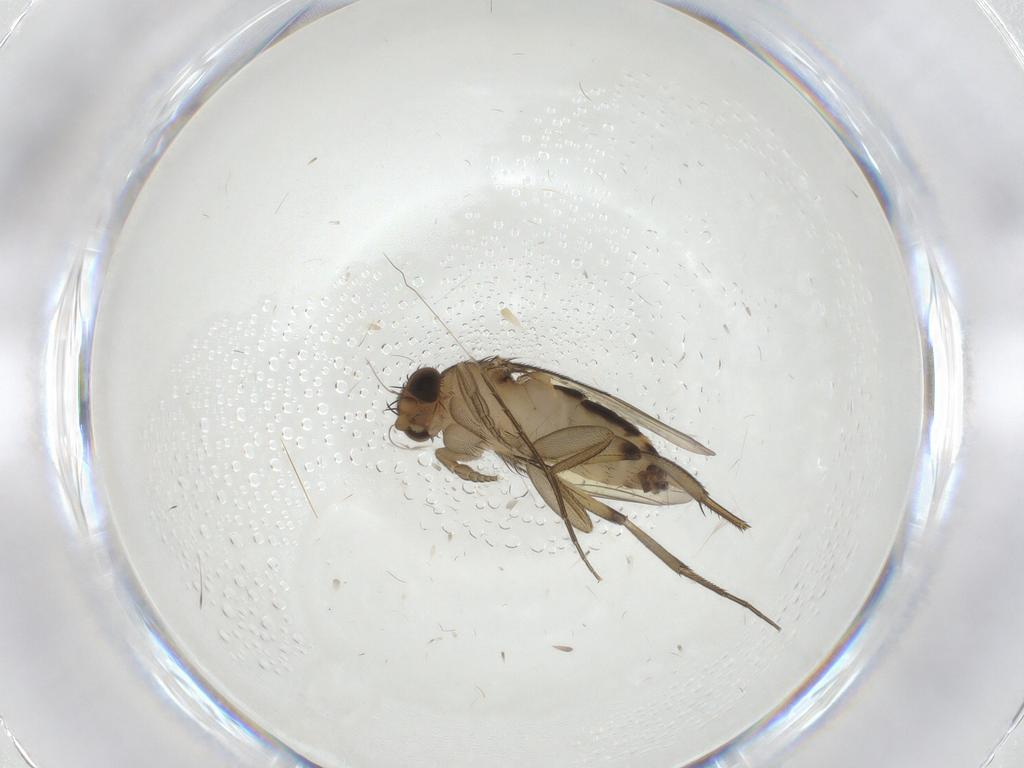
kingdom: Animalia
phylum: Arthropoda
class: Insecta
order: Diptera
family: Phoridae
